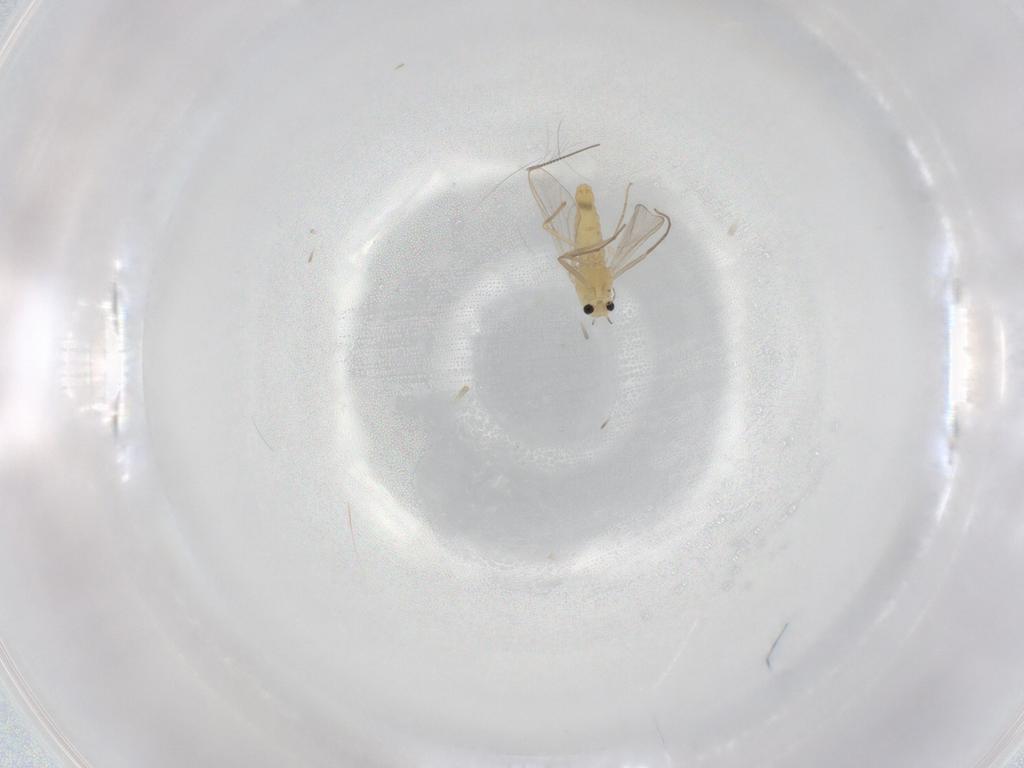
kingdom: Animalia
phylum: Arthropoda
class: Insecta
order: Diptera
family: Chironomidae
